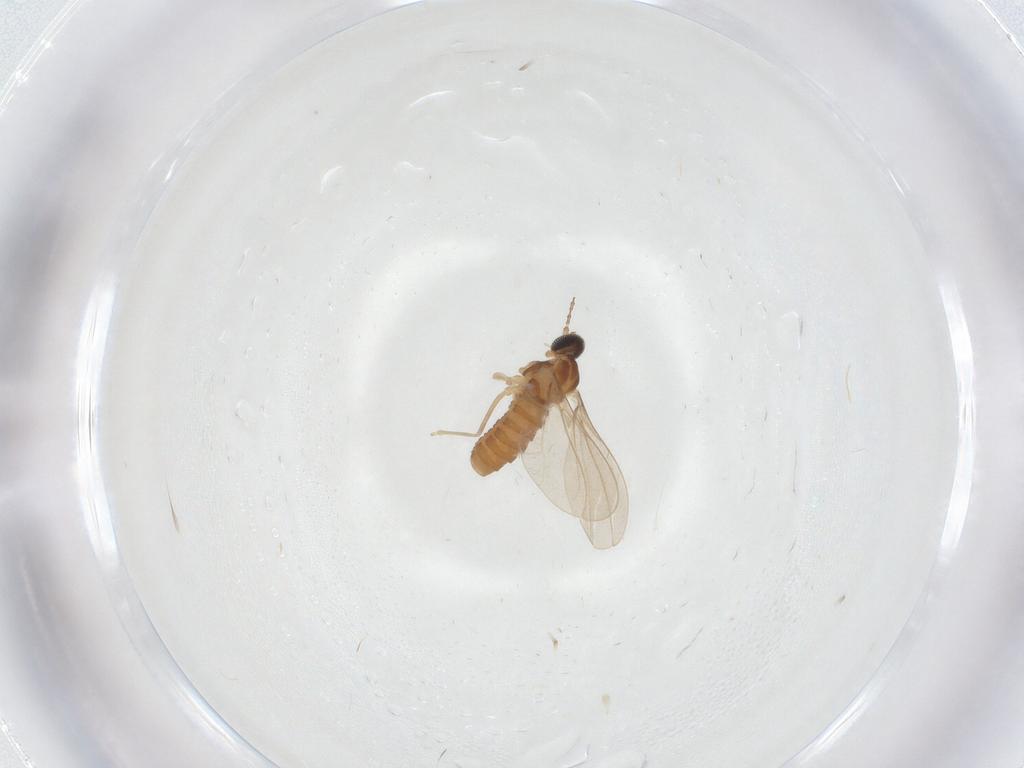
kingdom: Animalia
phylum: Arthropoda
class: Insecta
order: Diptera
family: Cecidomyiidae
